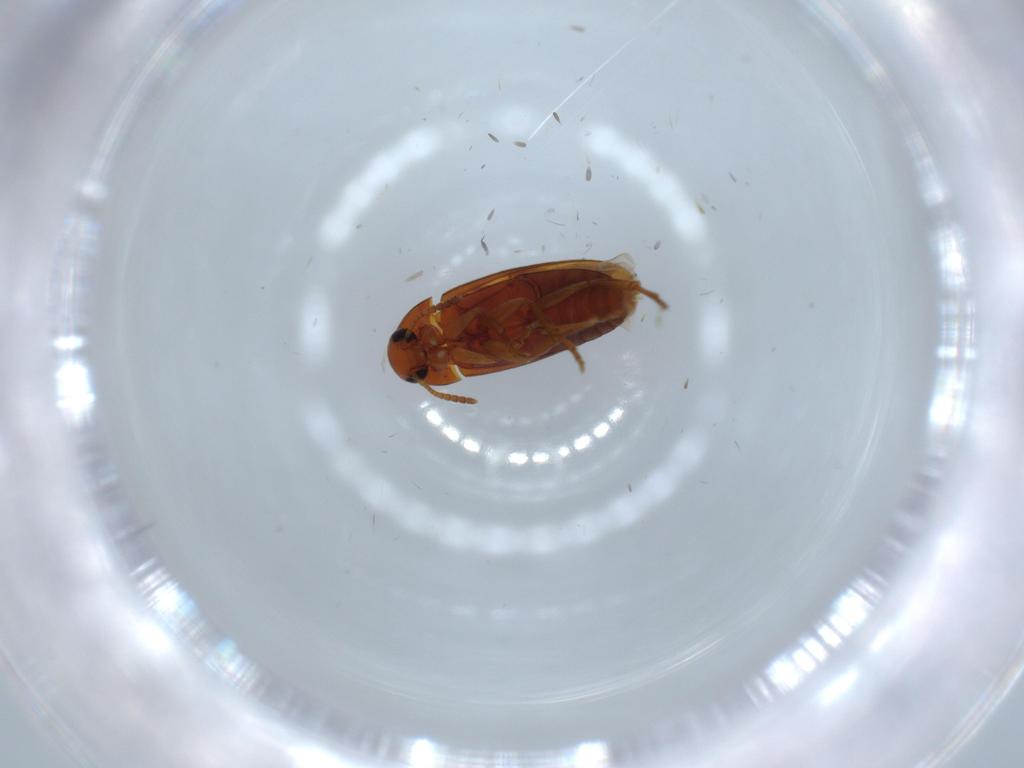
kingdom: Animalia
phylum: Arthropoda
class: Insecta
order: Coleoptera
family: Scraptiidae
